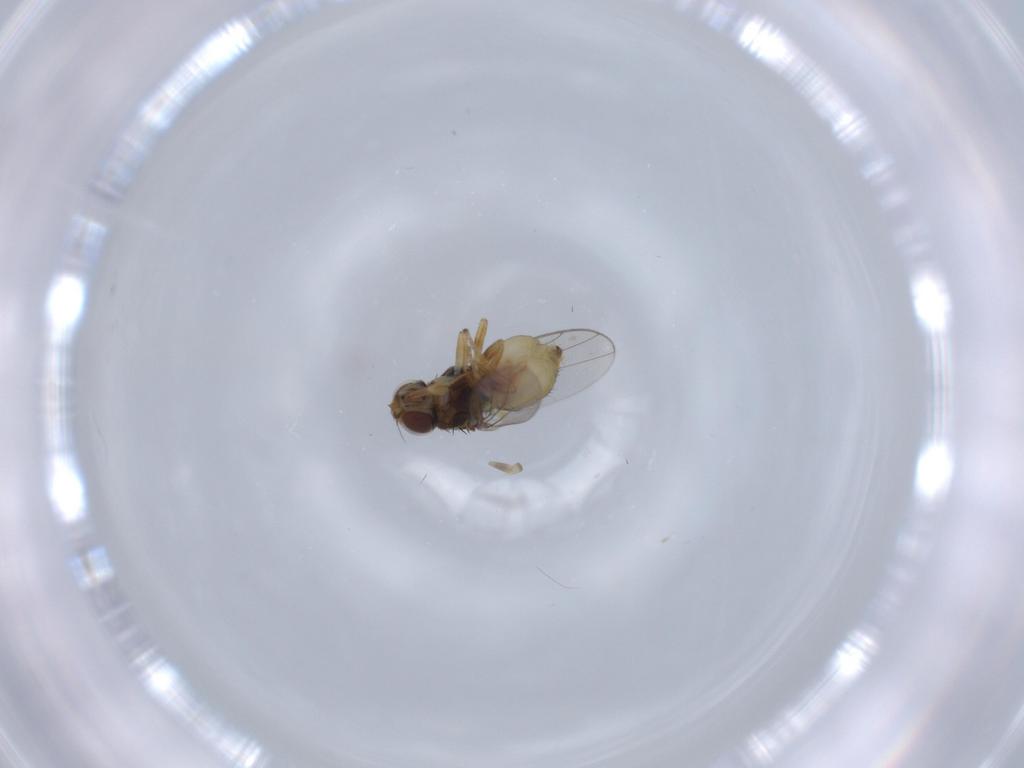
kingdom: Animalia
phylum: Arthropoda
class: Insecta
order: Diptera
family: Chloropidae
